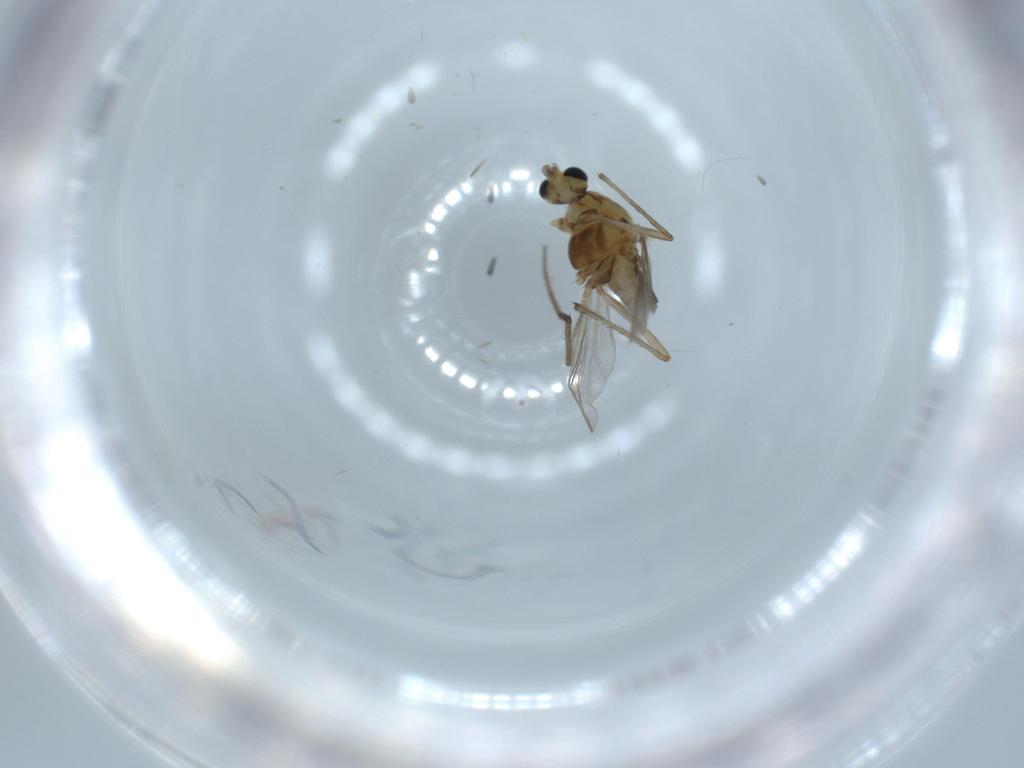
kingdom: Animalia
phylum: Arthropoda
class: Insecta
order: Diptera
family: Chironomidae
